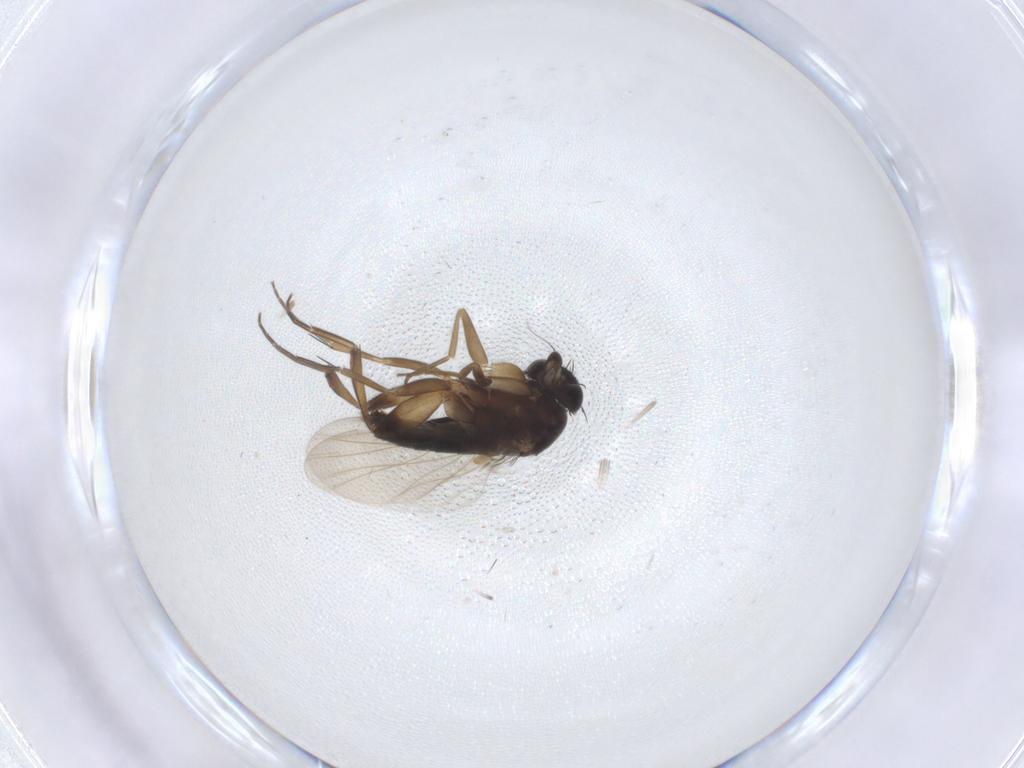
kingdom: Animalia
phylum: Arthropoda
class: Insecta
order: Diptera
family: Phoridae
